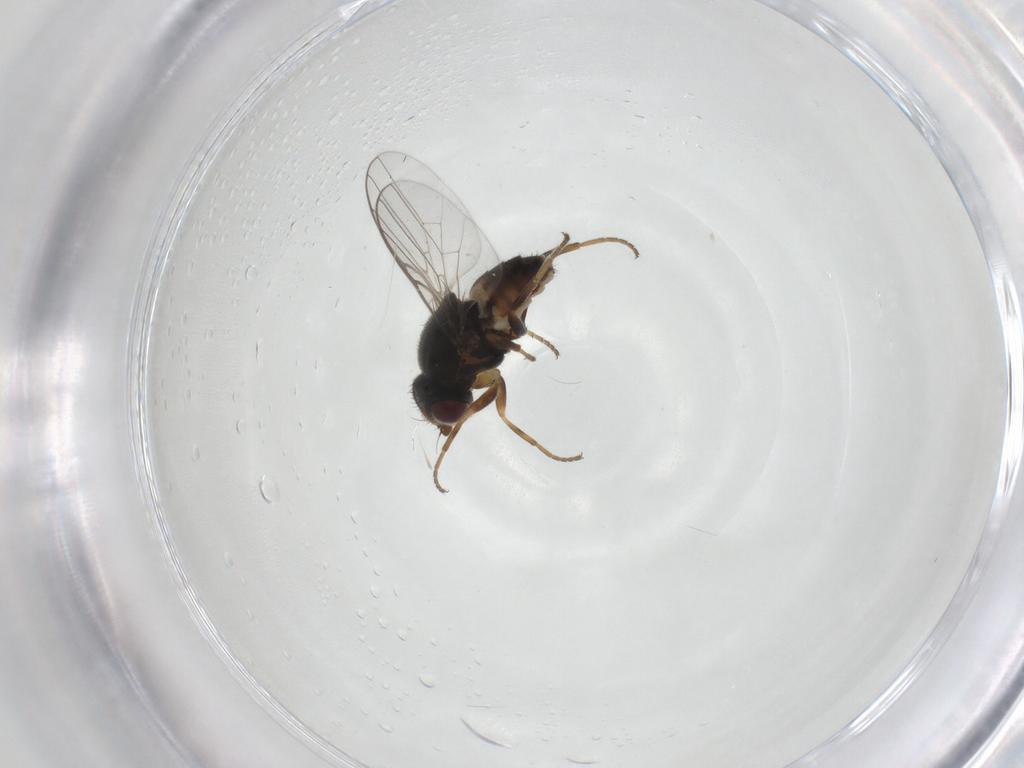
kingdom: Animalia
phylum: Arthropoda
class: Insecta
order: Diptera
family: Chloropidae
